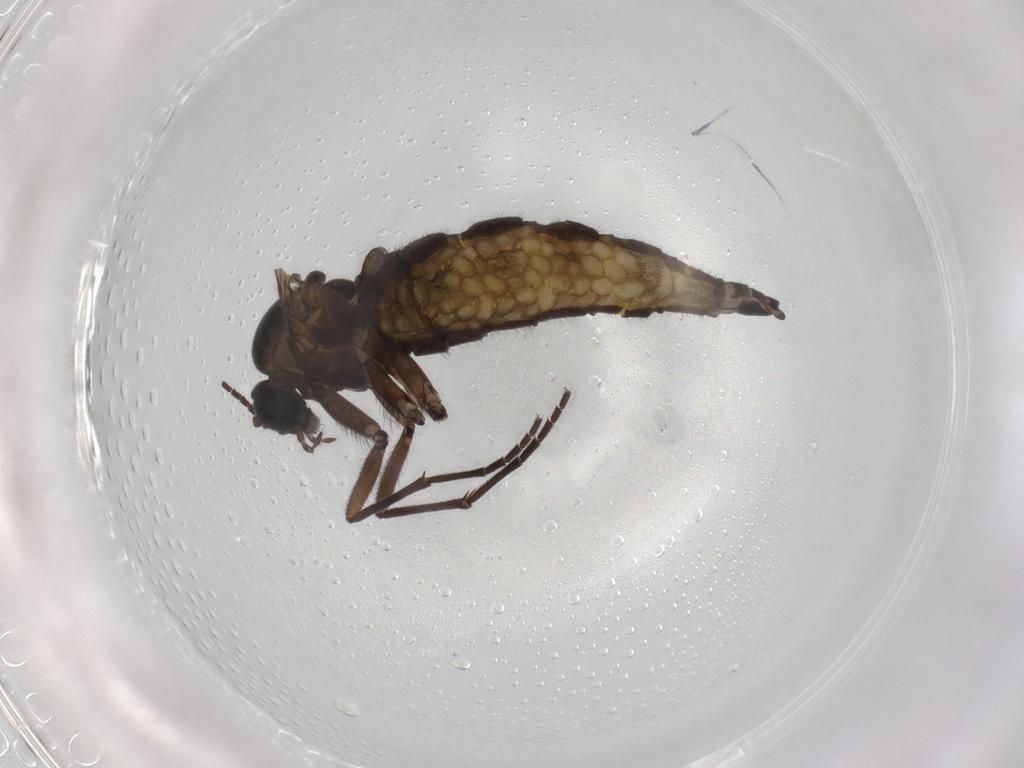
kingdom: Animalia
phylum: Arthropoda
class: Insecta
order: Diptera
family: Sciaridae
